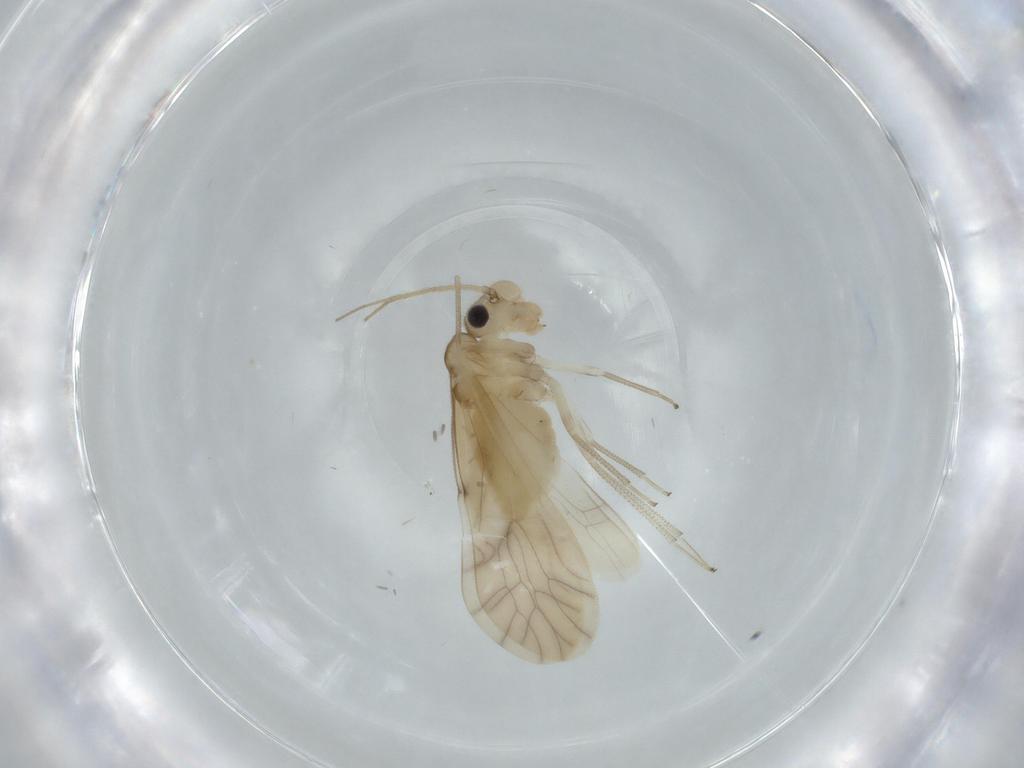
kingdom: Animalia
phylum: Arthropoda
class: Insecta
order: Psocodea
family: Caeciliusidae
